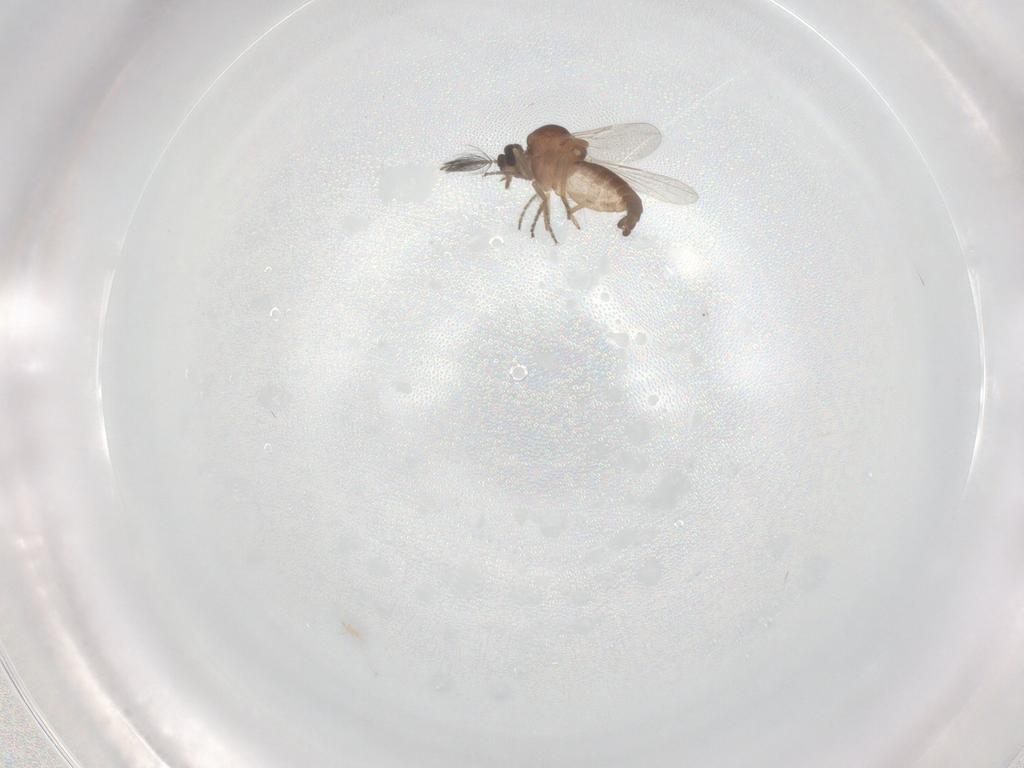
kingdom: Animalia
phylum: Arthropoda
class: Insecta
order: Diptera
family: Ceratopogonidae
